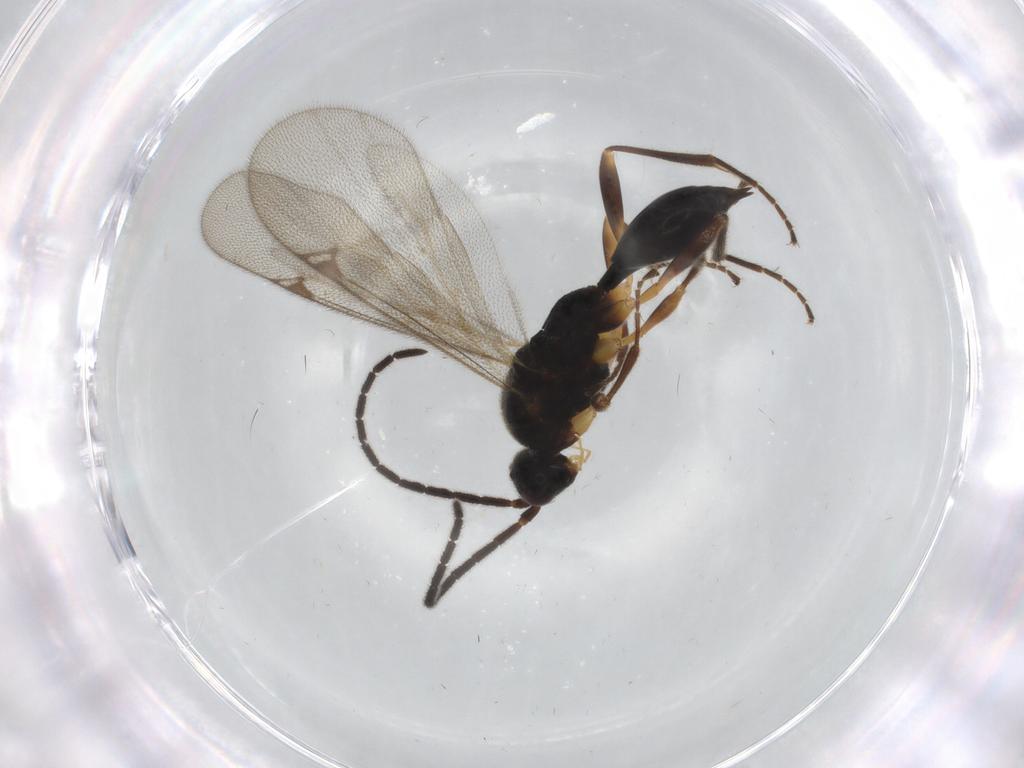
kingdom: Animalia
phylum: Arthropoda
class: Insecta
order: Hymenoptera
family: Proctotrupidae
